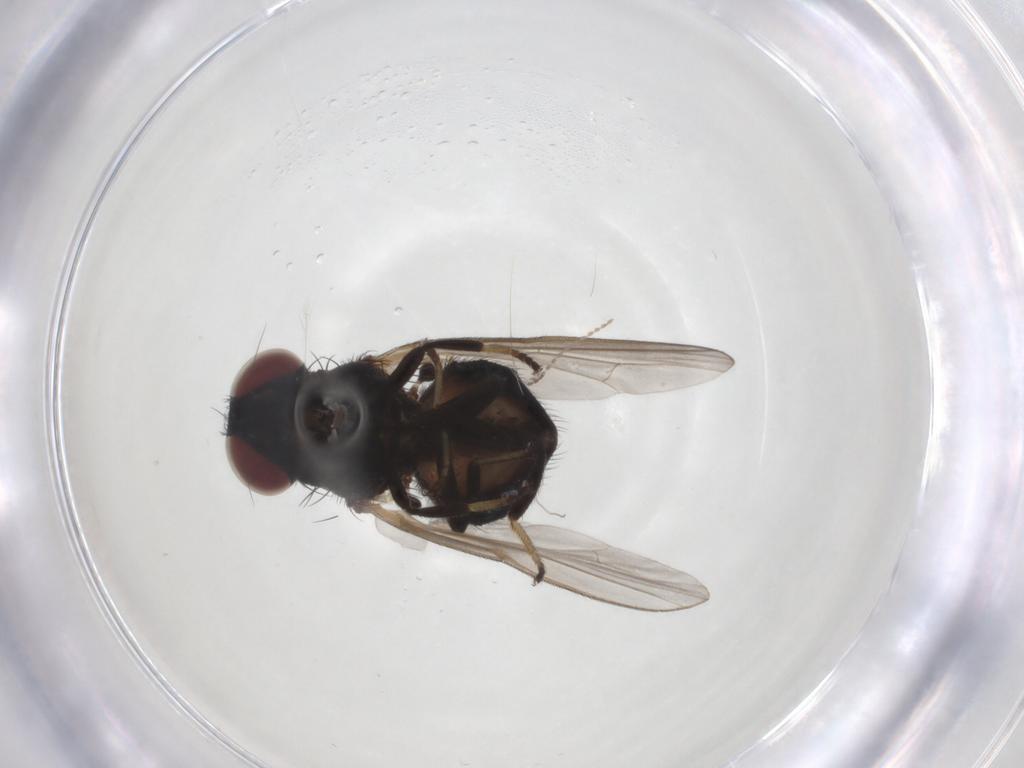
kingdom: Animalia
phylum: Arthropoda
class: Insecta
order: Diptera
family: Lonchaeidae
